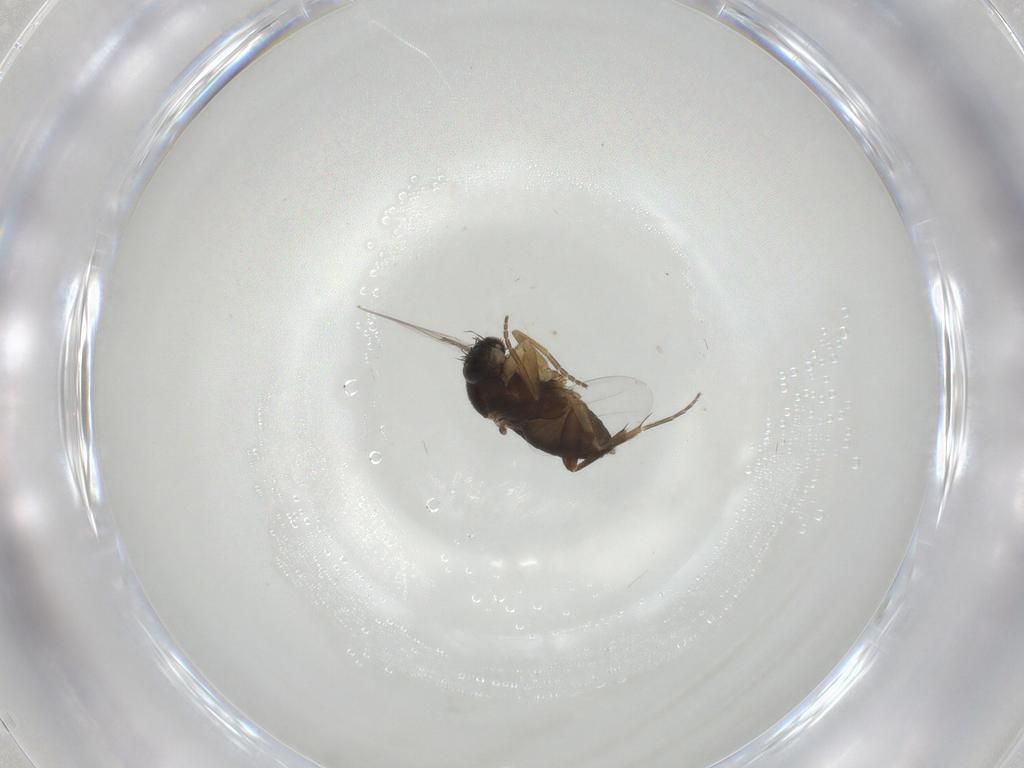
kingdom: Animalia
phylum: Arthropoda
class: Insecta
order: Diptera
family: Phoridae
